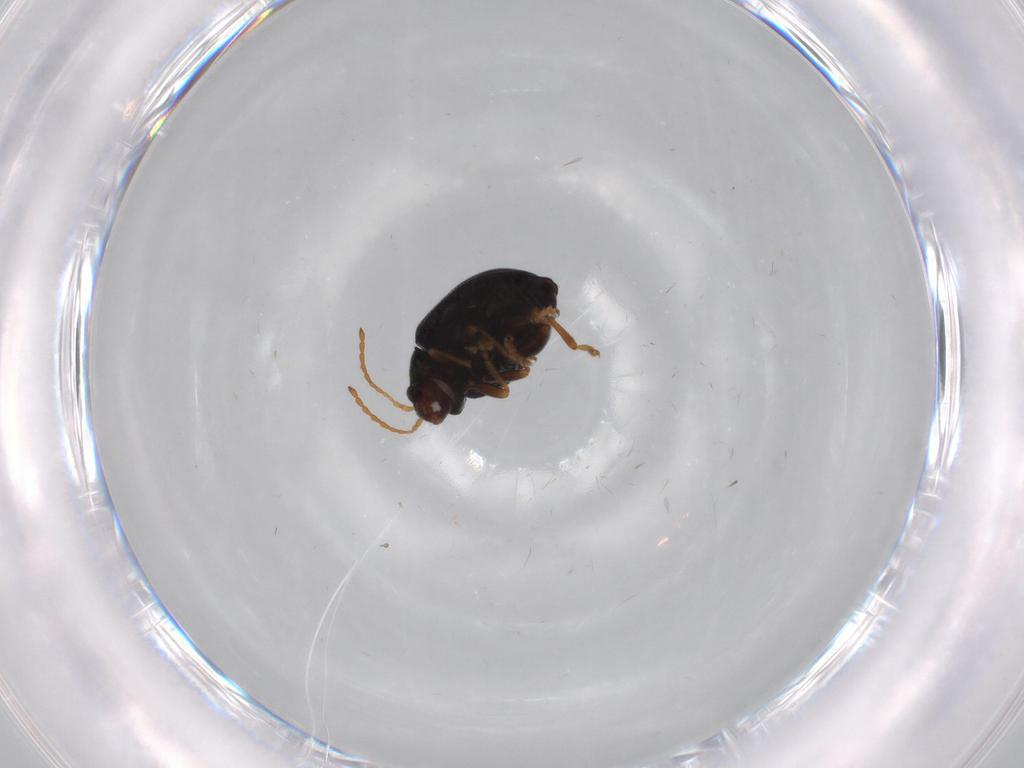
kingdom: Animalia
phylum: Arthropoda
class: Insecta
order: Coleoptera
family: Chrysomelidae
